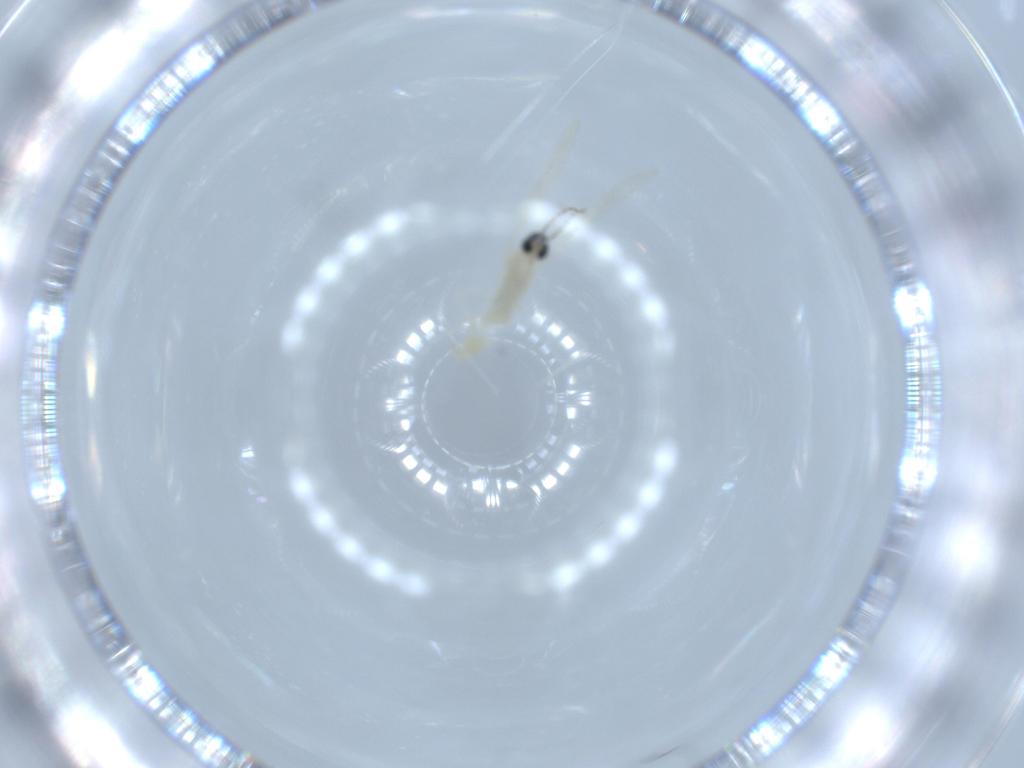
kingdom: Animalia
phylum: Arthropoda
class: Insecta
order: Diptera
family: Cecidomyiidae
